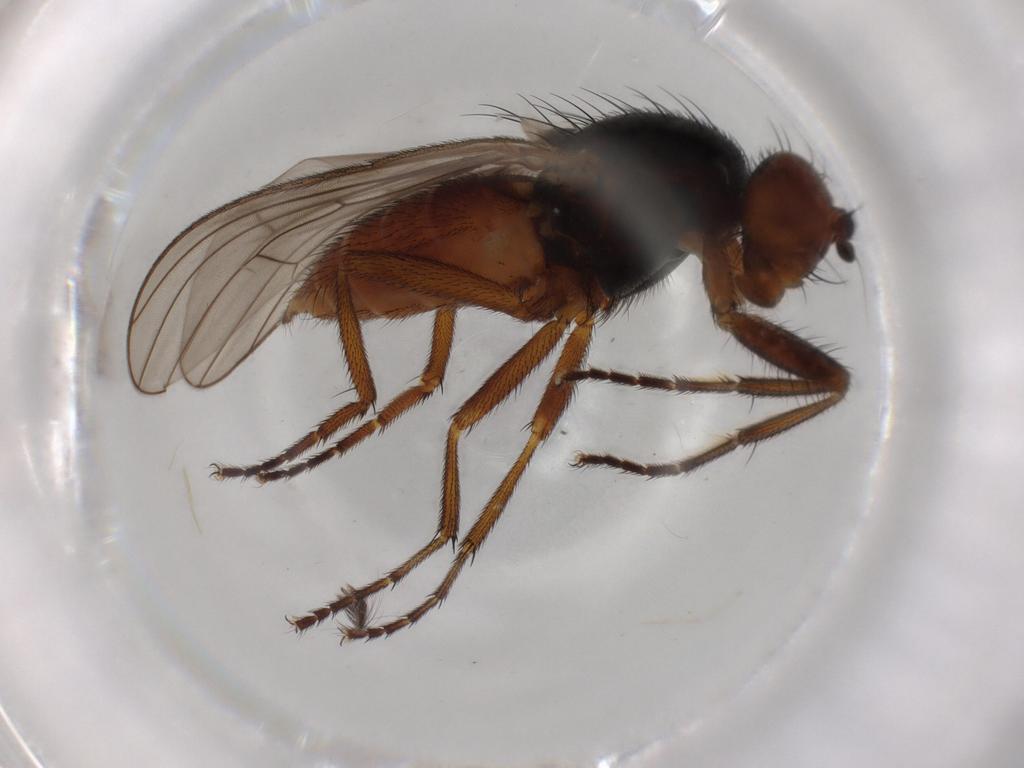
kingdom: Animalia
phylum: Arthropoda
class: Insecta
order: Diptera
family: Heleomyzidae
